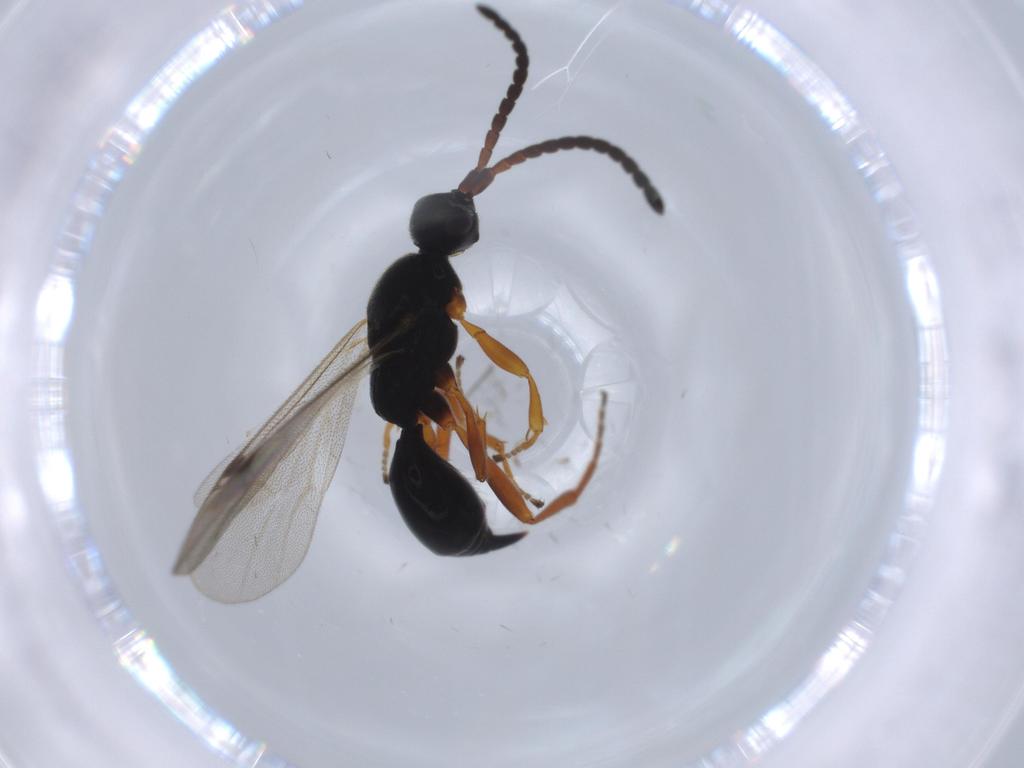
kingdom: Animalia
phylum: Arthropoda
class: Insecta
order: Hymenoptera
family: Proctotrupidae
